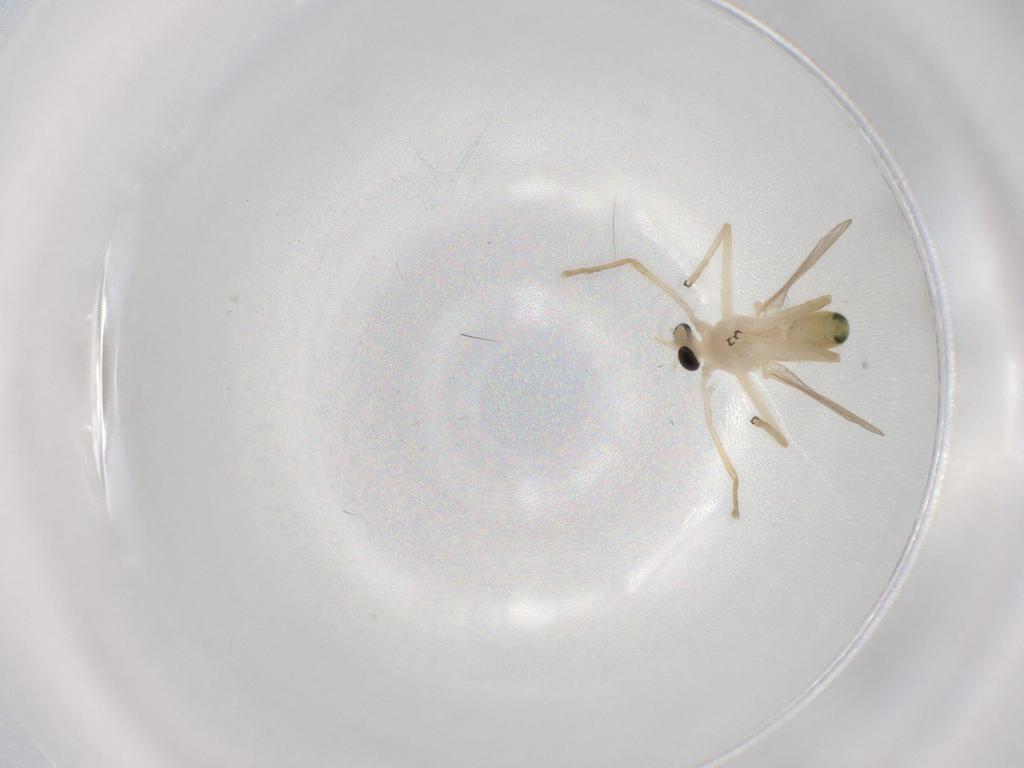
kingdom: Animalia
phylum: Arthropoda
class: Insecta
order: Diptera
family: Chironomidae
